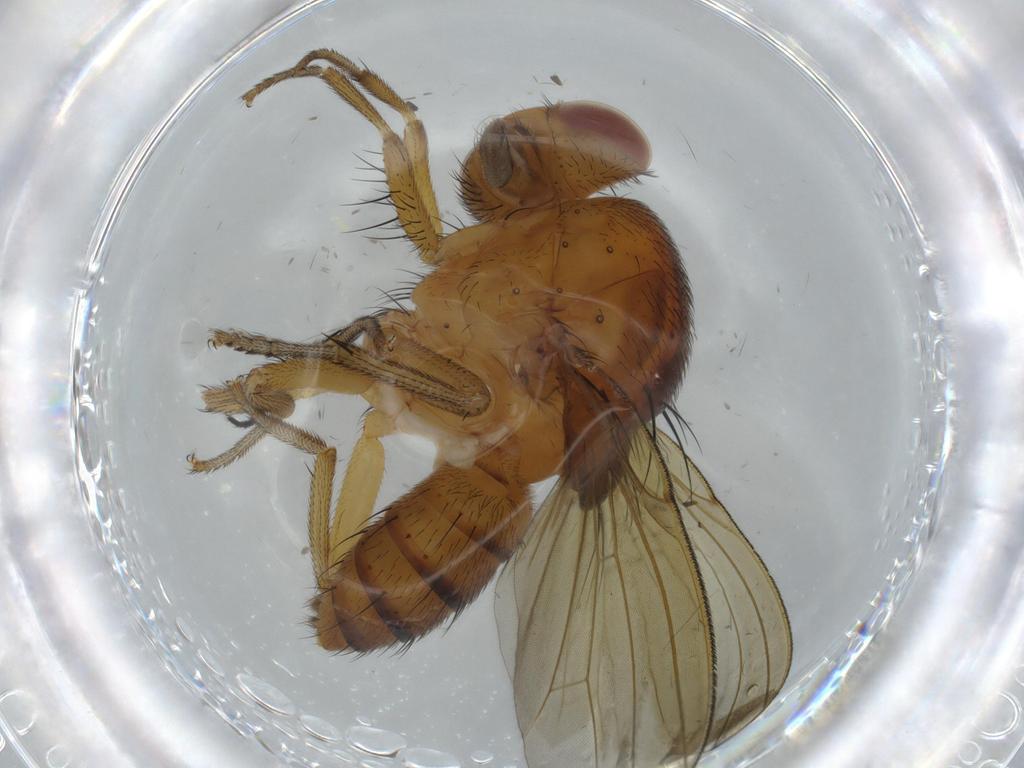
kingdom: Animalia
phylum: Arthropoda
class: Insecta
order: Diptera
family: Milichiidae
